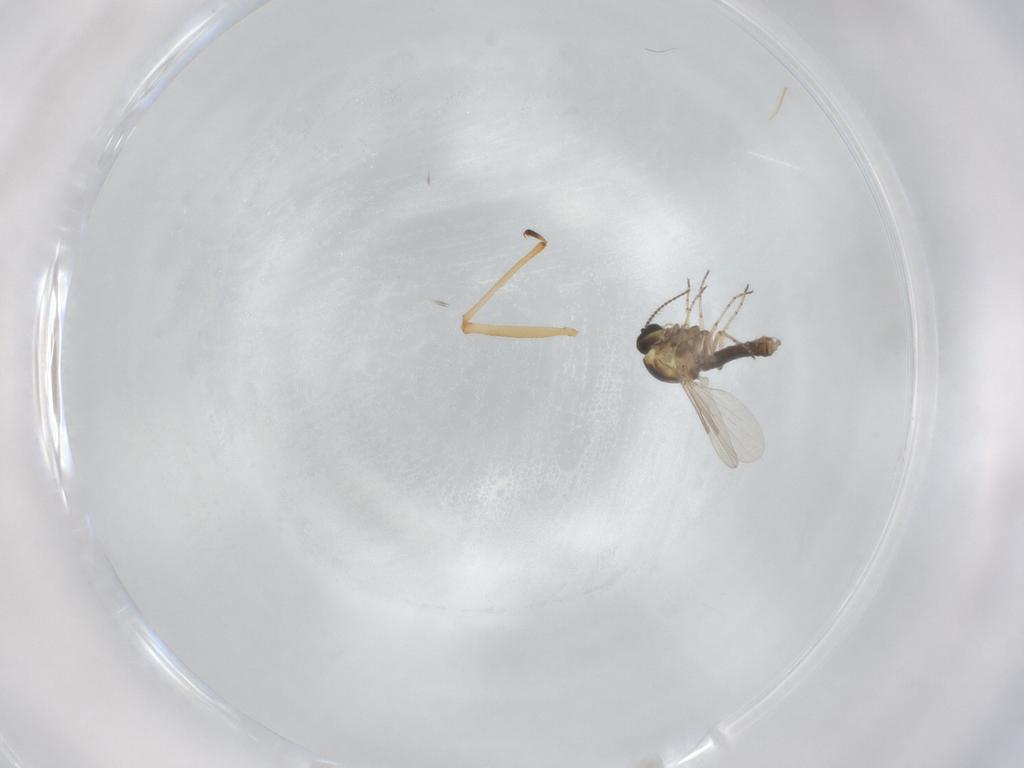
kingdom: Animalia
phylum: Arthropoda
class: Insecta
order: Diptera
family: Ceratopogonidae
